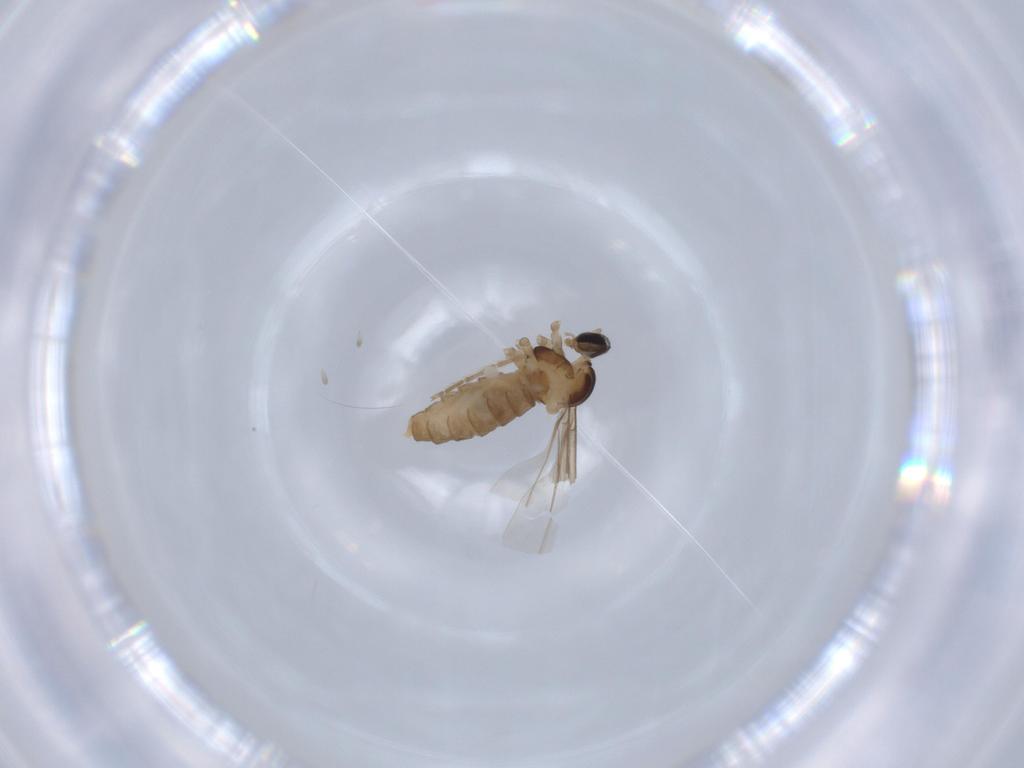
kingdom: Animalia
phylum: Arthropoda
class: Insecta
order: Diptera
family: Cecidomyiidae
